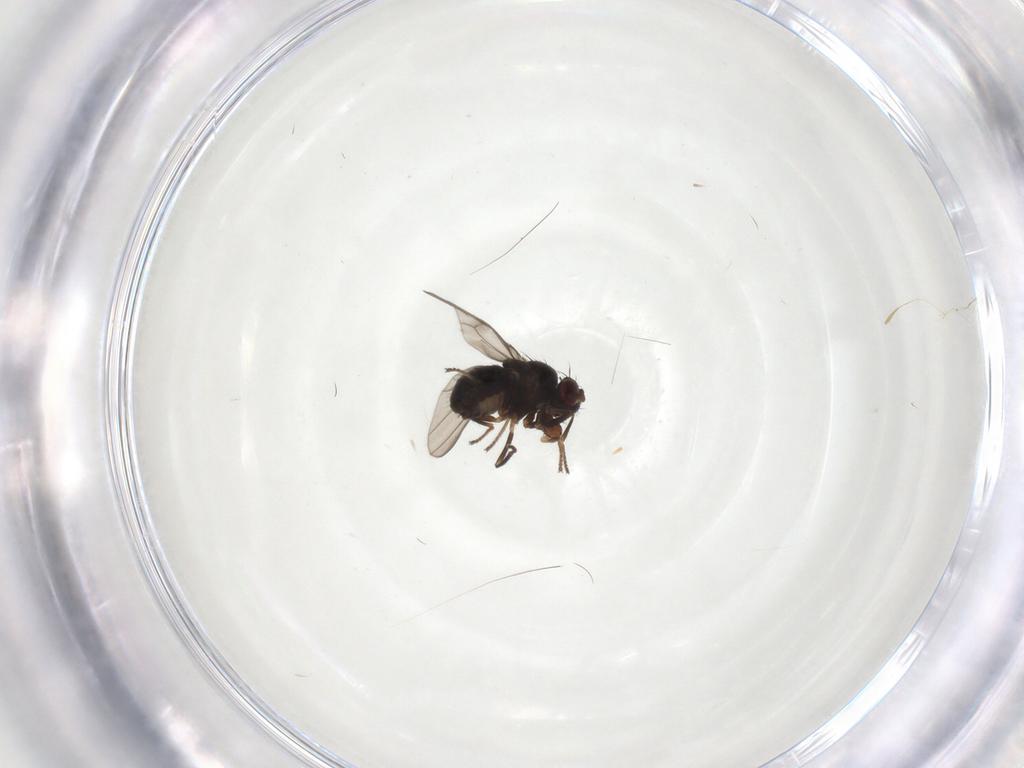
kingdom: Animalia
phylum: Arthropoda
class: Insecta
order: Diptera
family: Ephydridae
